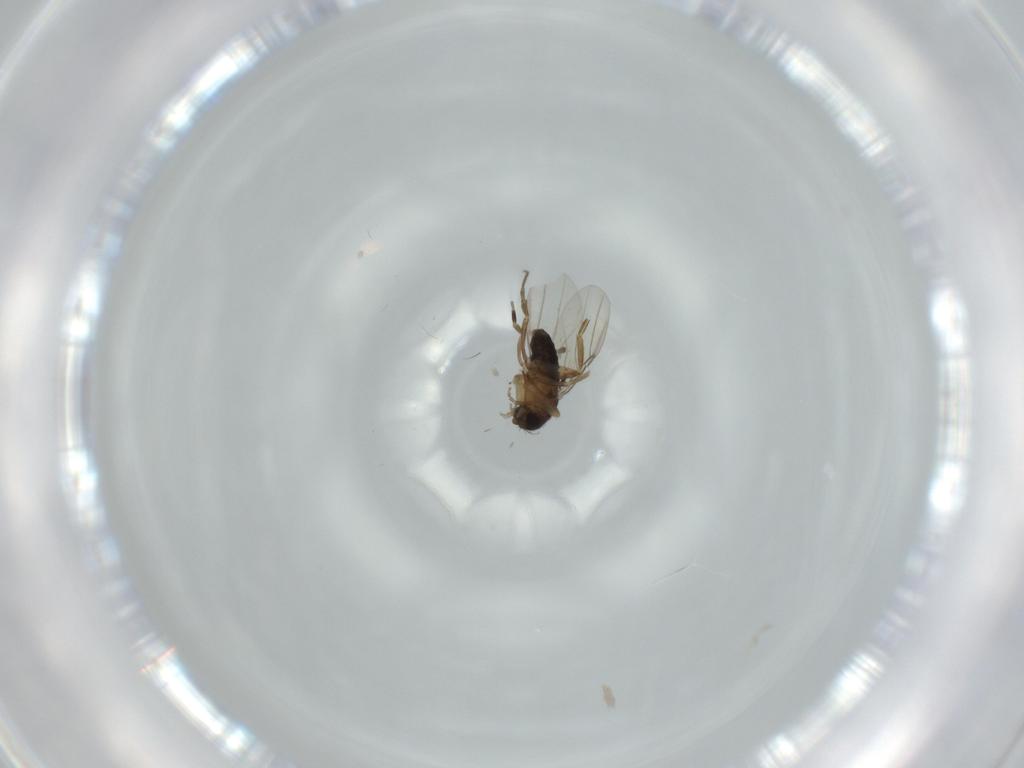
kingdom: Animalia
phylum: Arthropoda
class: Insecta
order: Diptera
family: Phoridae
